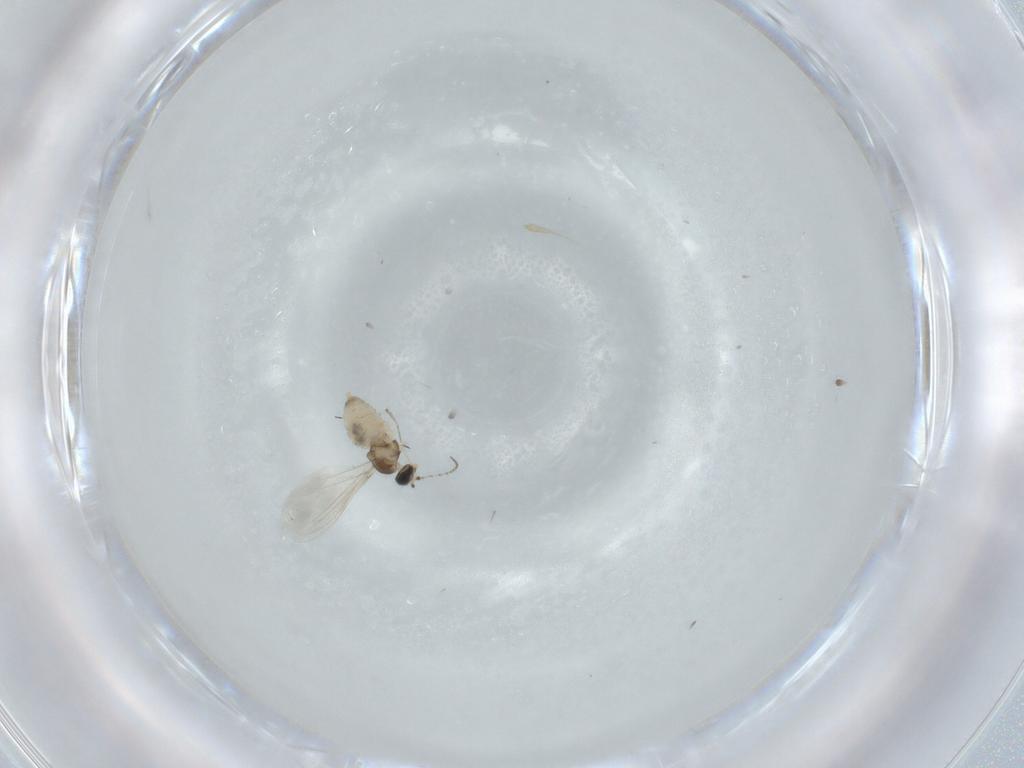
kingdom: Animalia
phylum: Arthropoda
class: Insecta
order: Diptera
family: Cecidomyiidae
